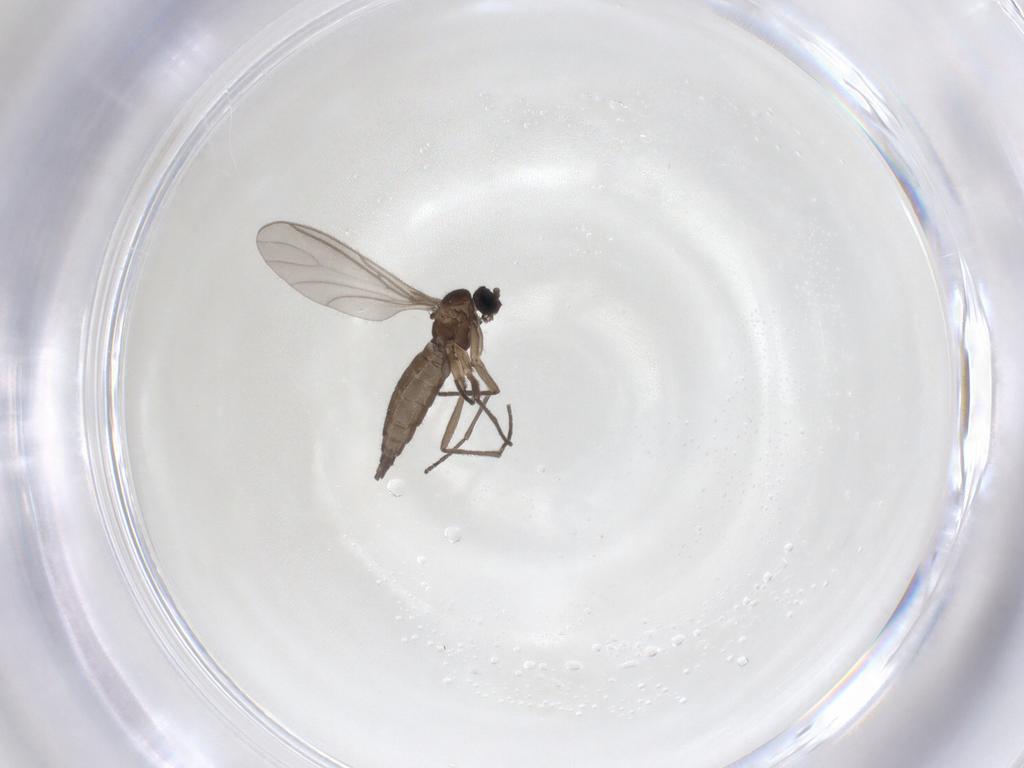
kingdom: Animalia
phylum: Arthropoda
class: Insecta
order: Diptera
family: Sciaridae
